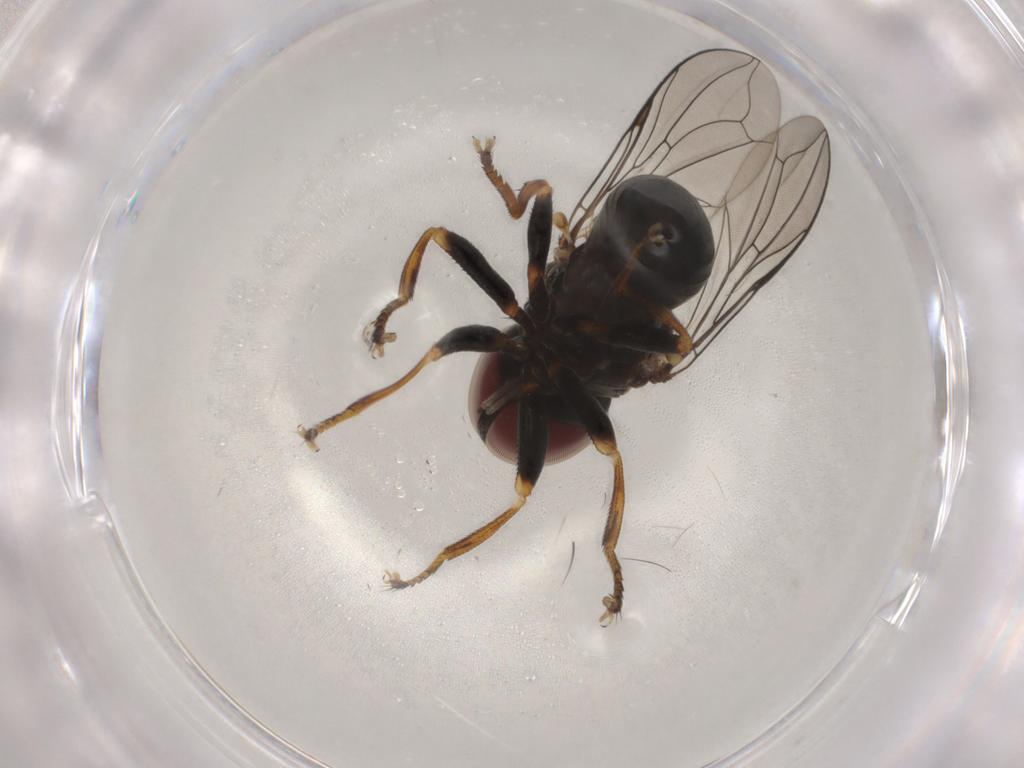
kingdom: Animalia
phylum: Arthropoda
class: Insecta
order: Diptera
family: Pipunculidae
